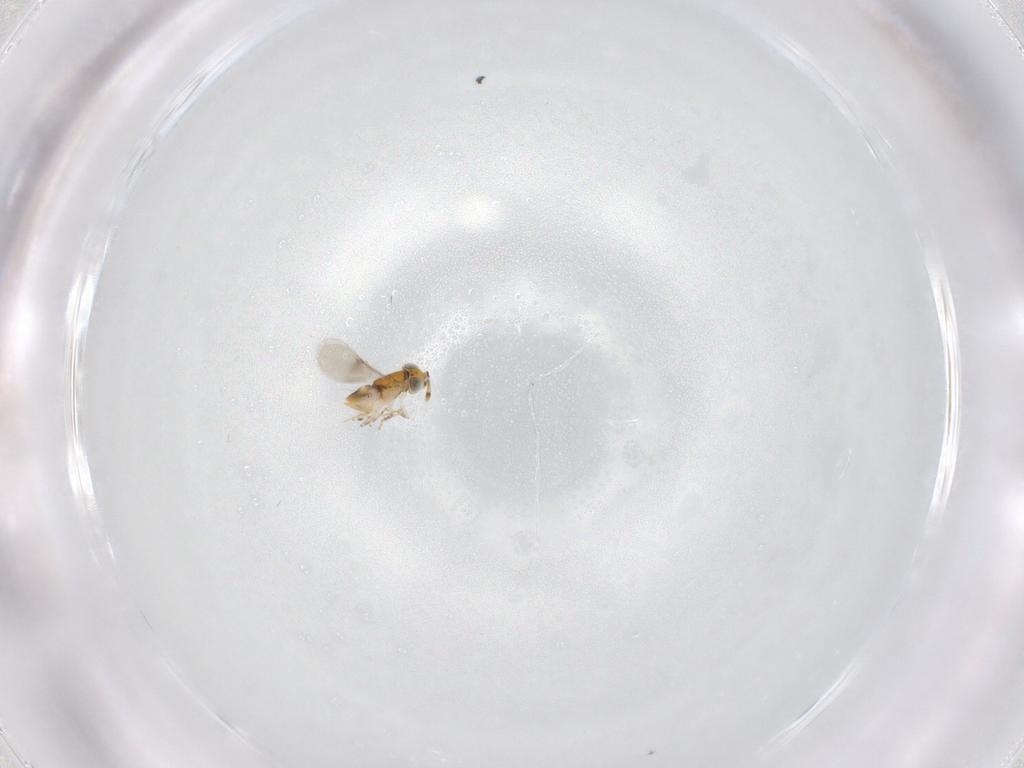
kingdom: Animalia
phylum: Arthropoda
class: Insecta
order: Hymenoptera
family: Eulophidae
